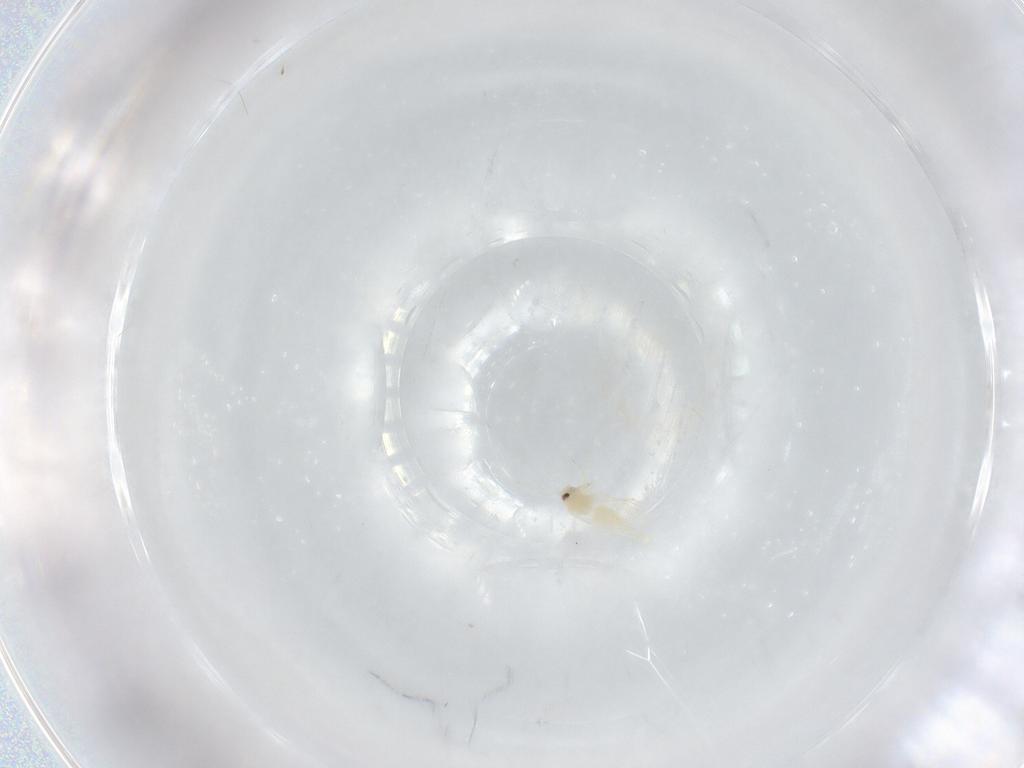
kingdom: Animalia
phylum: Arthropoda
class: Insecta
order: Hemiptera
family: Cicadellidae
